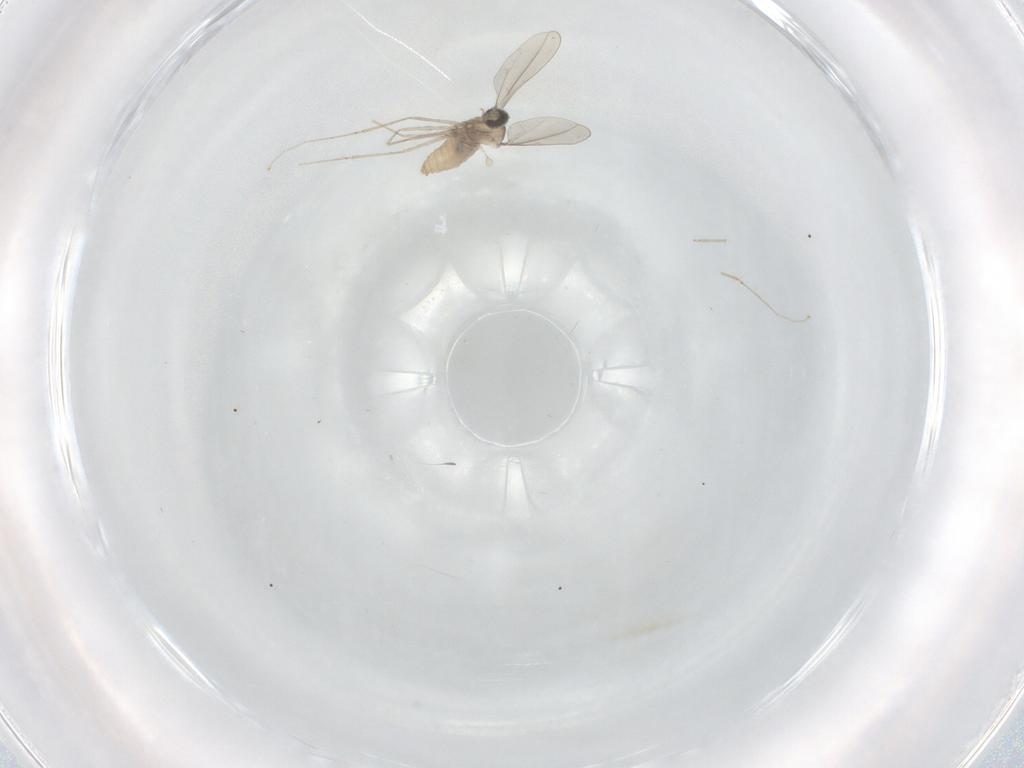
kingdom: Animalia
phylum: Arthropoda
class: Insecta
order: Diptera
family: Cecidomyiidae
